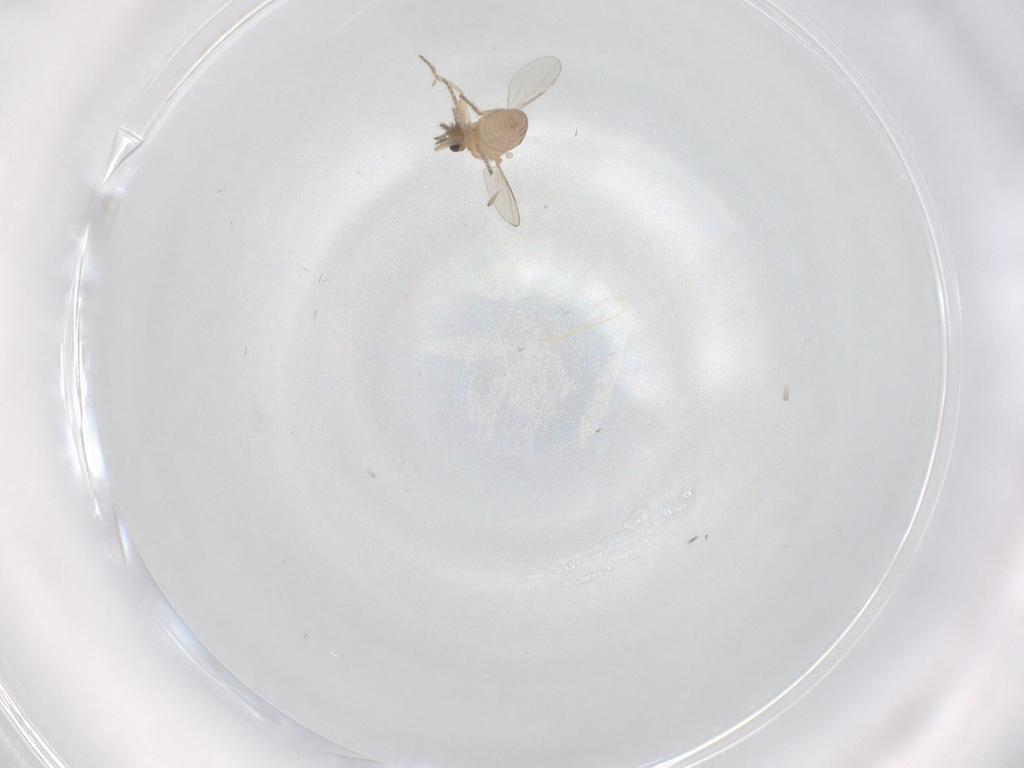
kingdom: Animalia
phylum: Arthropoda
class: Insecta
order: Diptera
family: Ceratopogonidae
